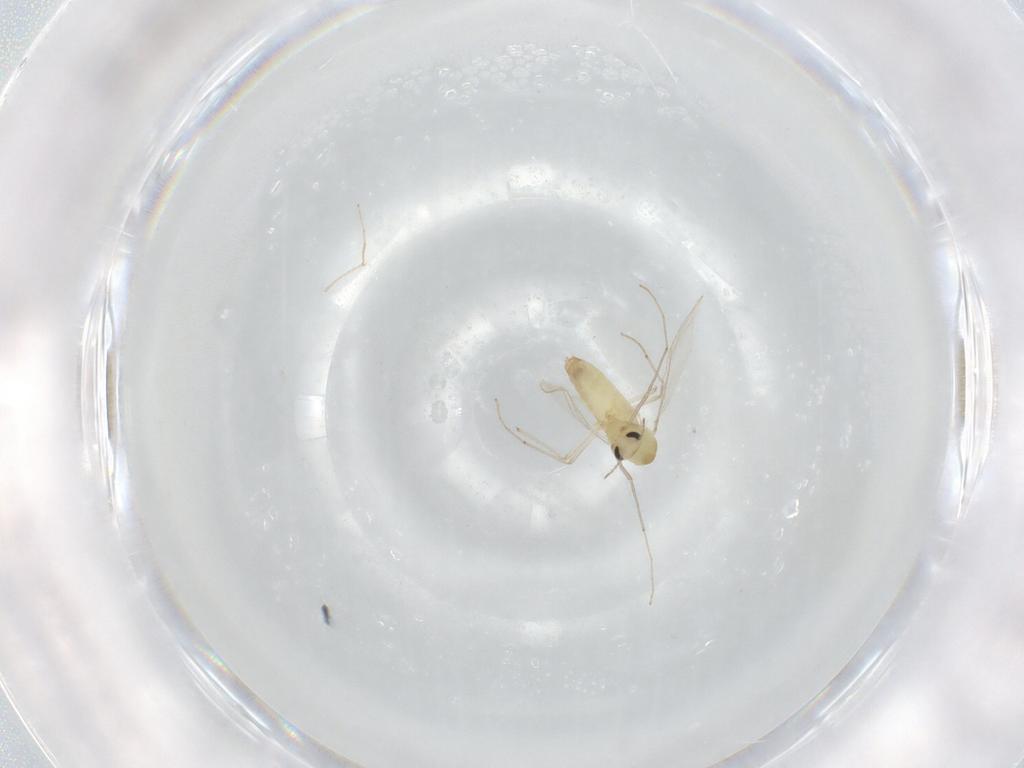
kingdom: Animalia
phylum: Arthropoda
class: Insecta
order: Diptera
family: Chironomidae
